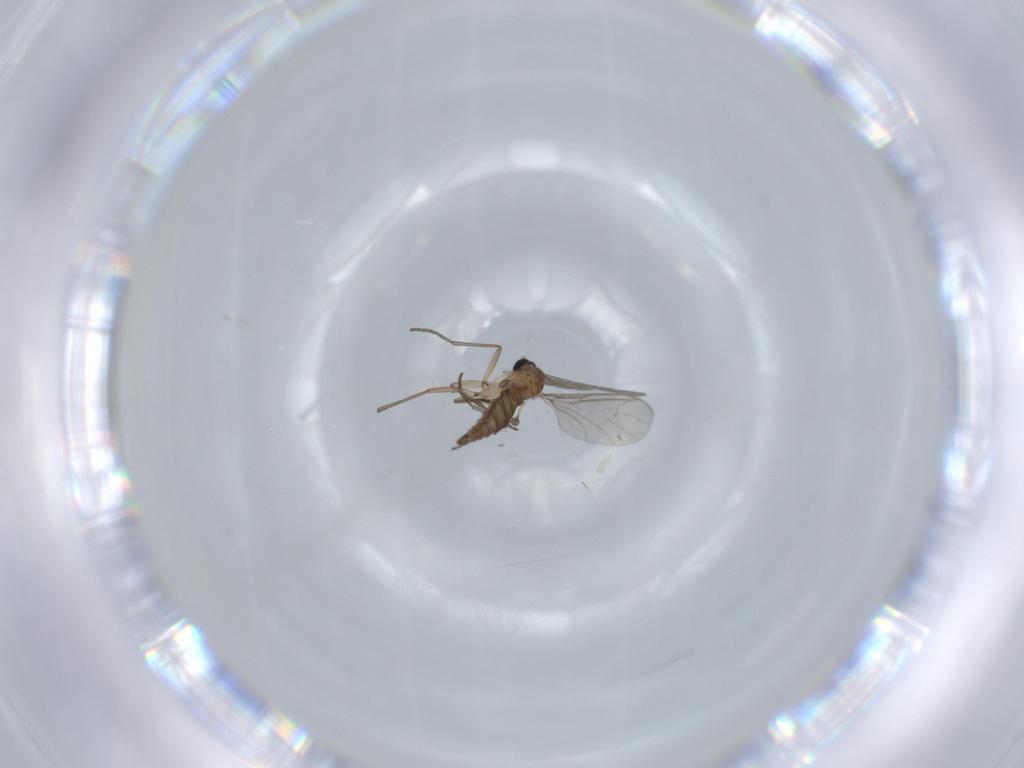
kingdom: Animalia
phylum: Arthropoda
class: Insecta
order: Diptera
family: Sciaridae
